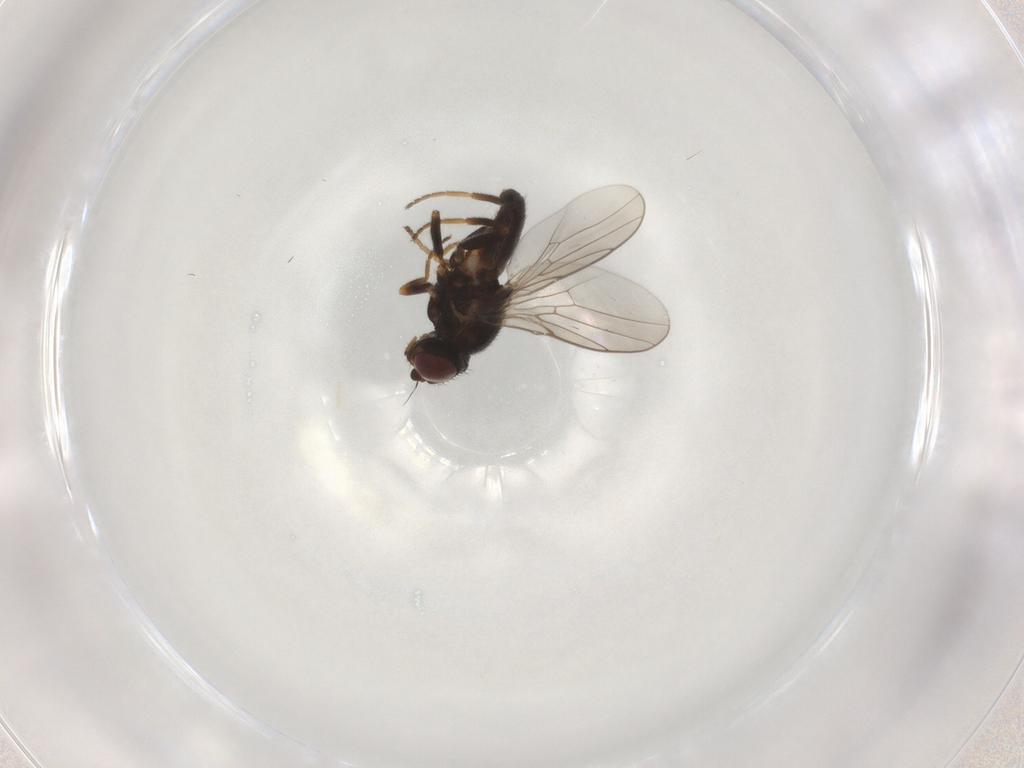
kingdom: Animalia
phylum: Arthropoda
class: Insecta
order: Diptera
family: Chloropidae
